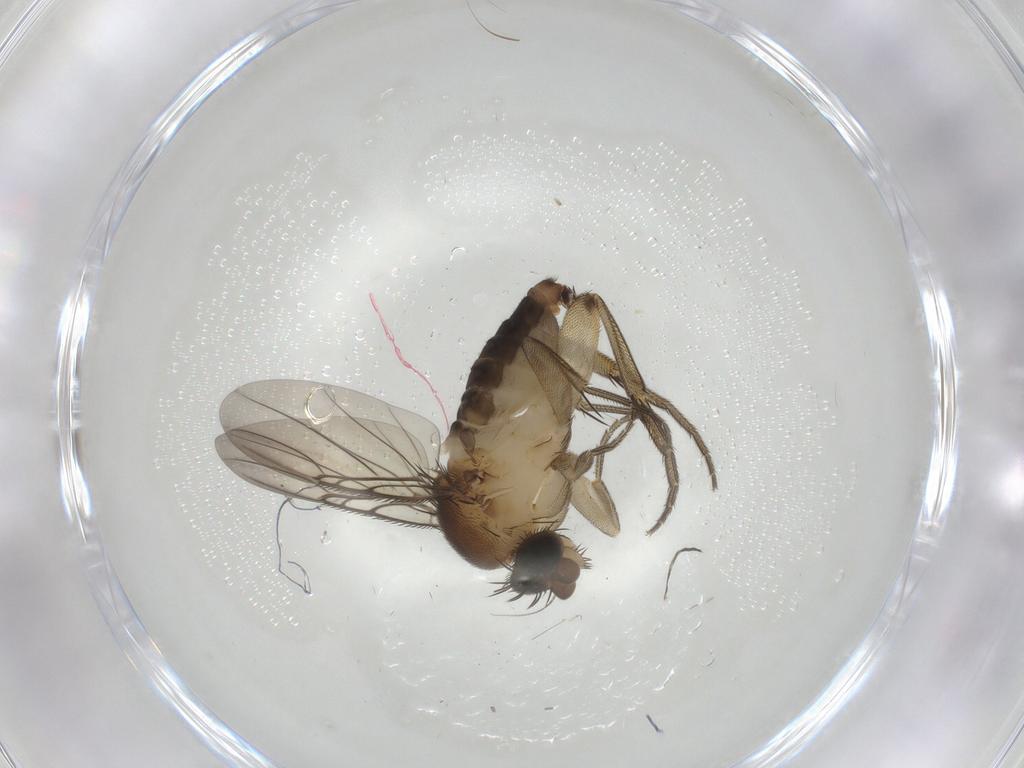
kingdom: Animalia
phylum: Arthropoda
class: Insecta
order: Diptera
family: Phoridae
